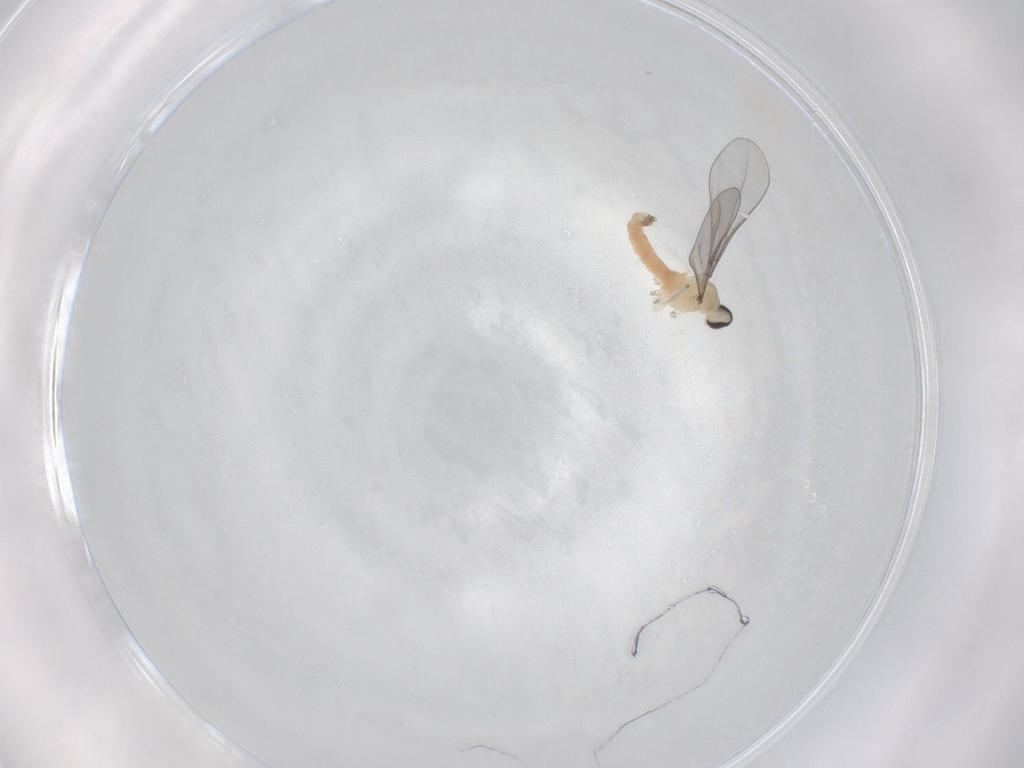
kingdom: Animalia
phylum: Arthropoda
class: Insecta
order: Diptera
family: Cecidomyiidae
